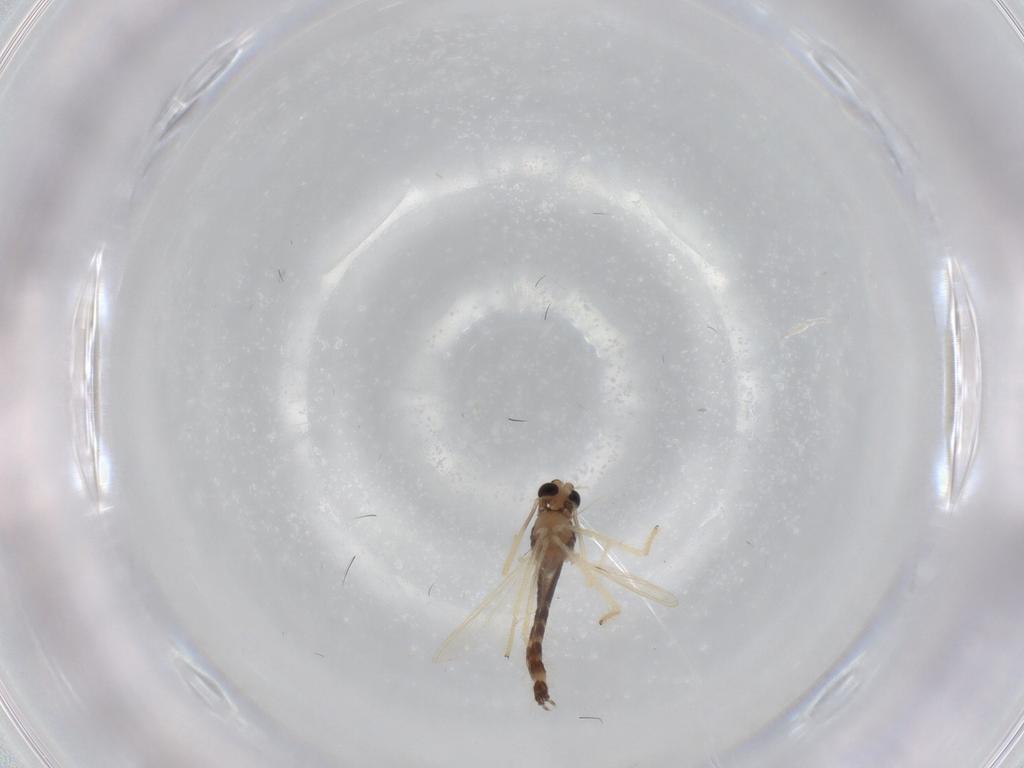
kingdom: Animalia
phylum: Arthropoda
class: Insecta
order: Diptera
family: Chironomidae
